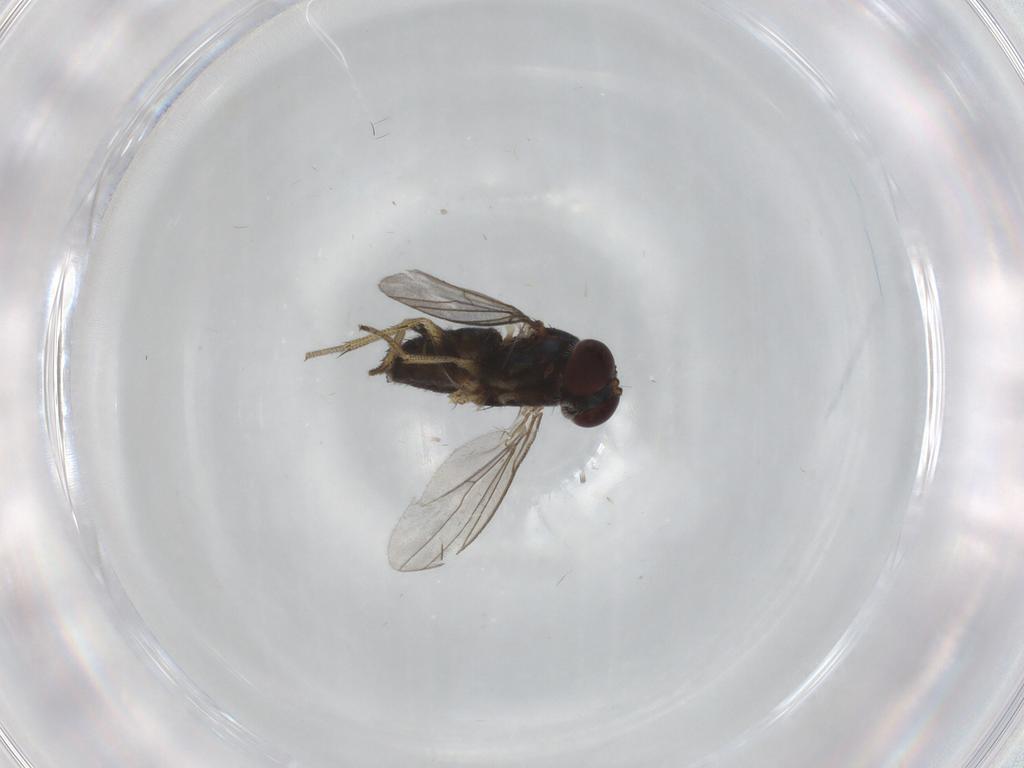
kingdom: Animalia
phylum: Arthropoda
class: Insecta
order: Diptera
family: Dolichopodidae
